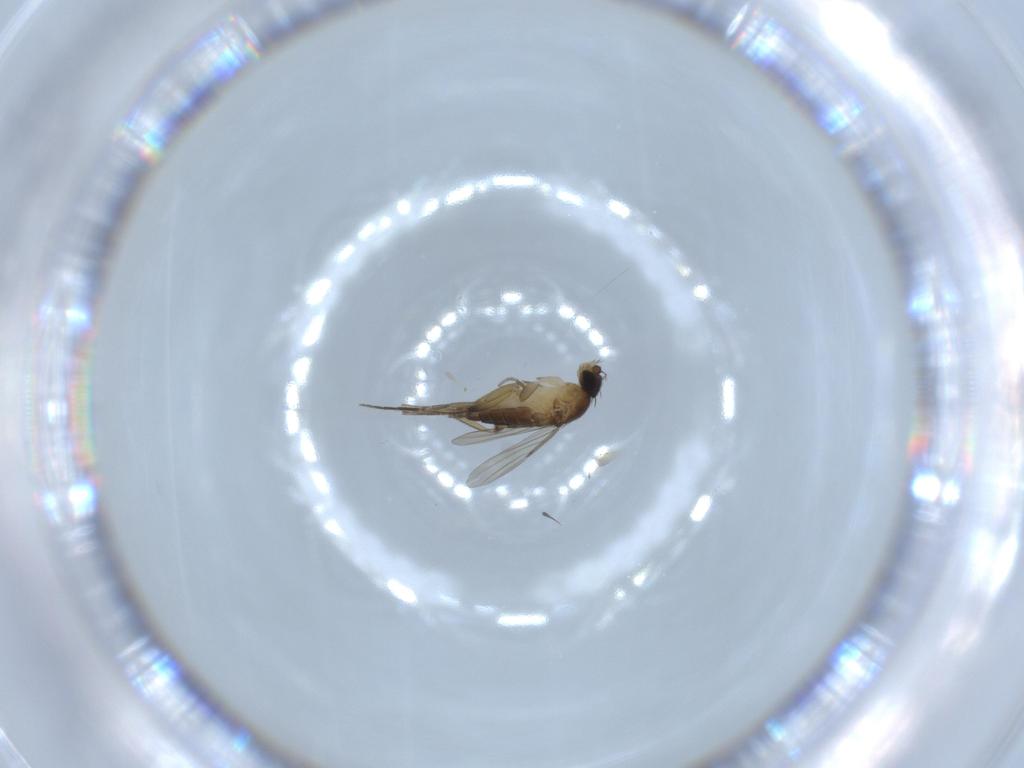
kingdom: Animalia
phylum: Arthropoda
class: Insecta
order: Diptera
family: Phoridae
